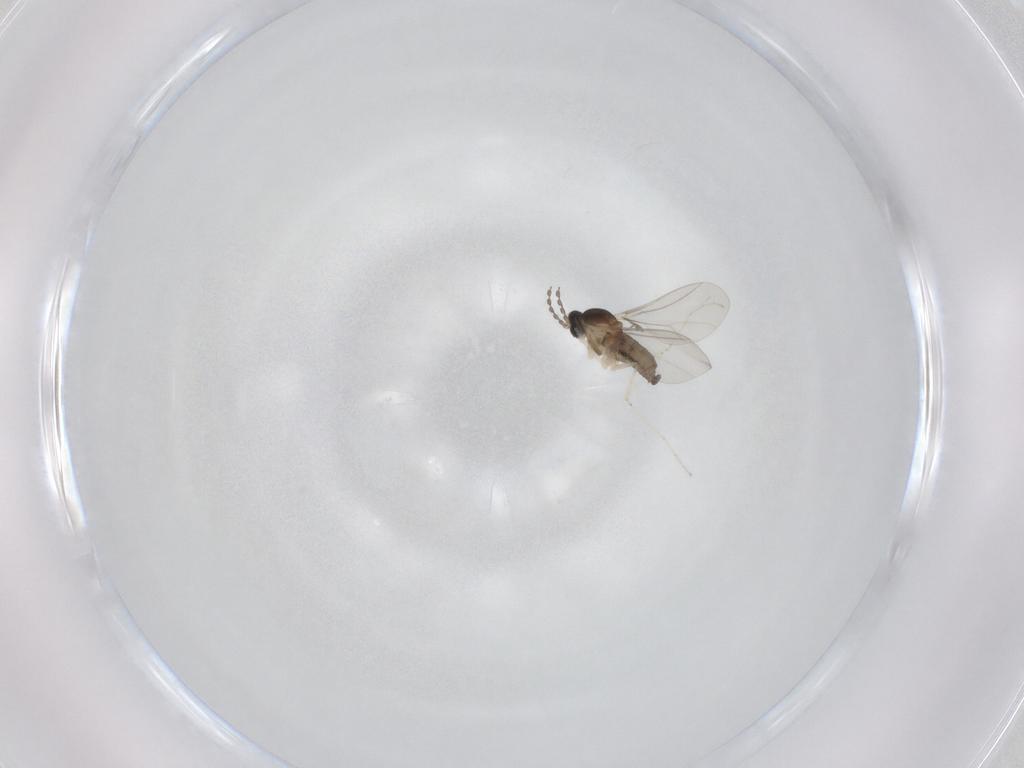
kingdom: Animalia
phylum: Arthropoda
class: Insecta
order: Diptera
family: Cecidomyiidae
